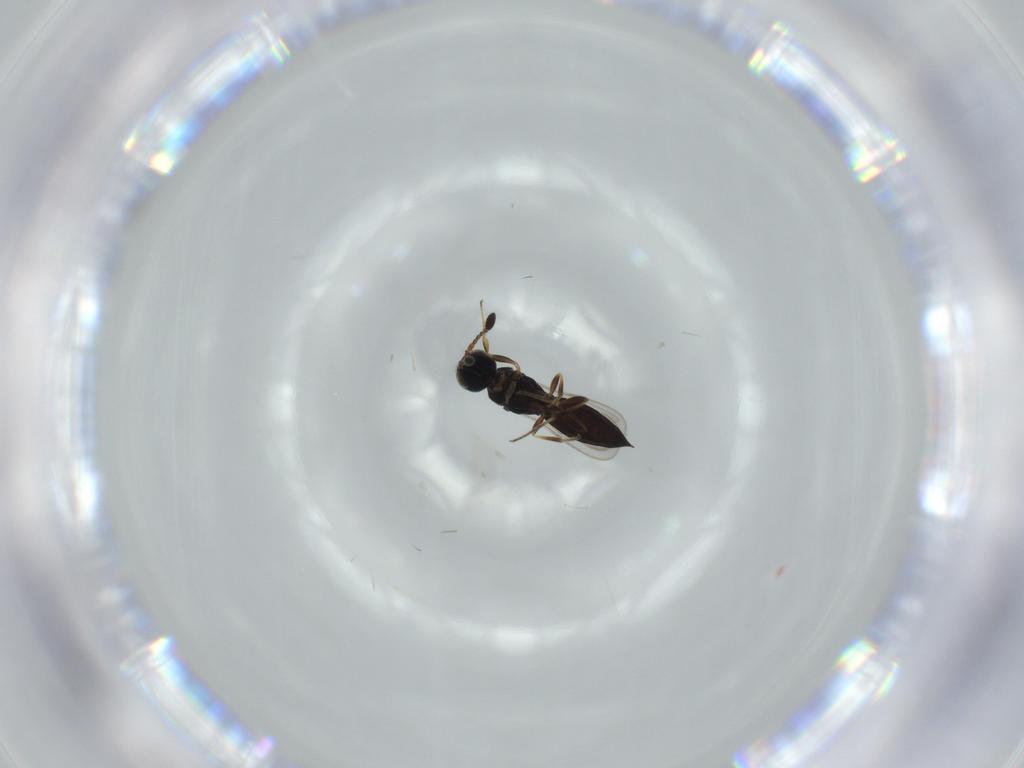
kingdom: Animalia
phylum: Arthropoda
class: Insecta
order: Hymenoptera
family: Scelionidae
